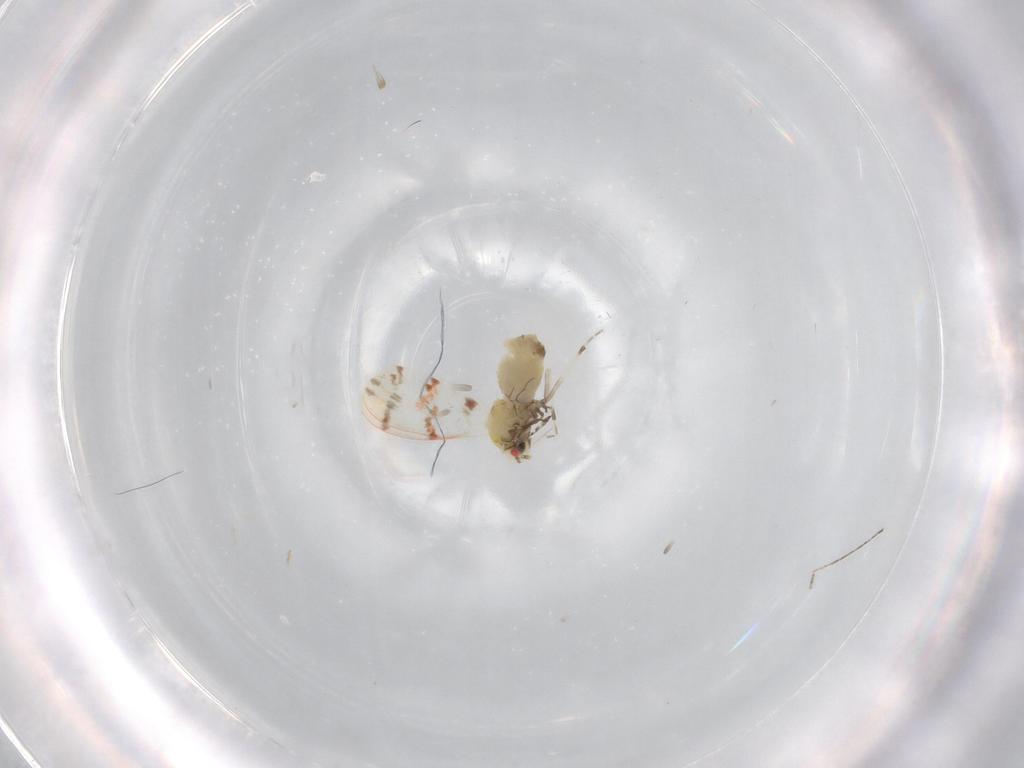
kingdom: Animalia
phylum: Arthropoda
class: Insecta
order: Hemiptera
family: Aleyrodidae
